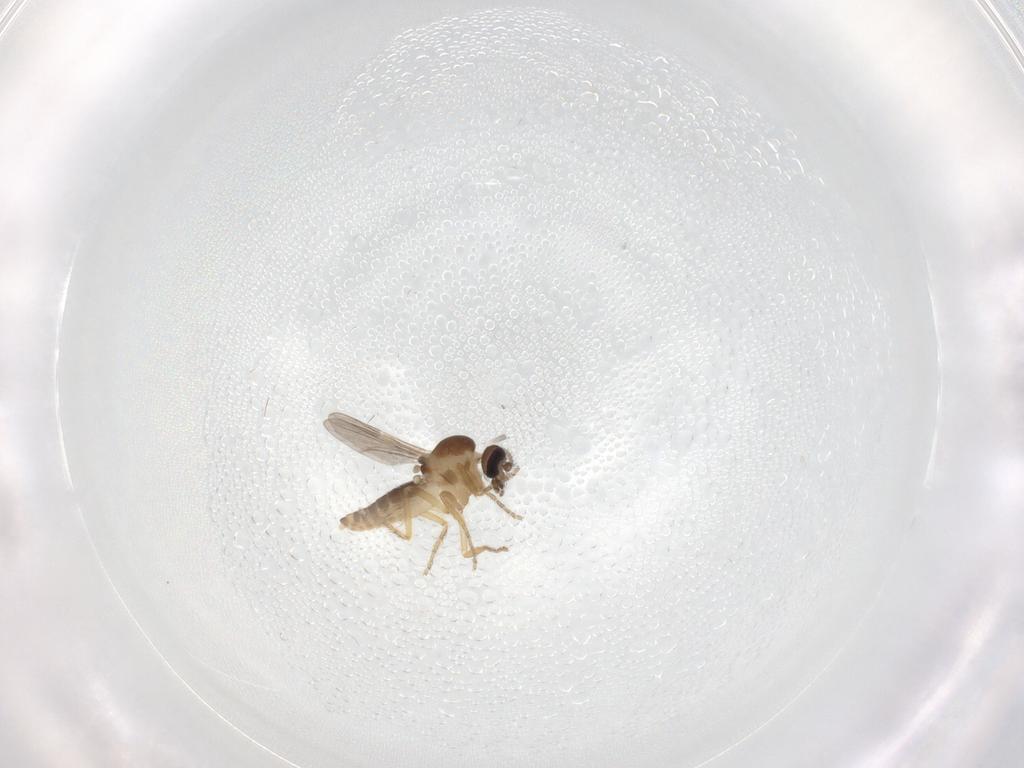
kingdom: Animalia
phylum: Arthropoda
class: Insecta
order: Diptera
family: Ceratopogonidae
